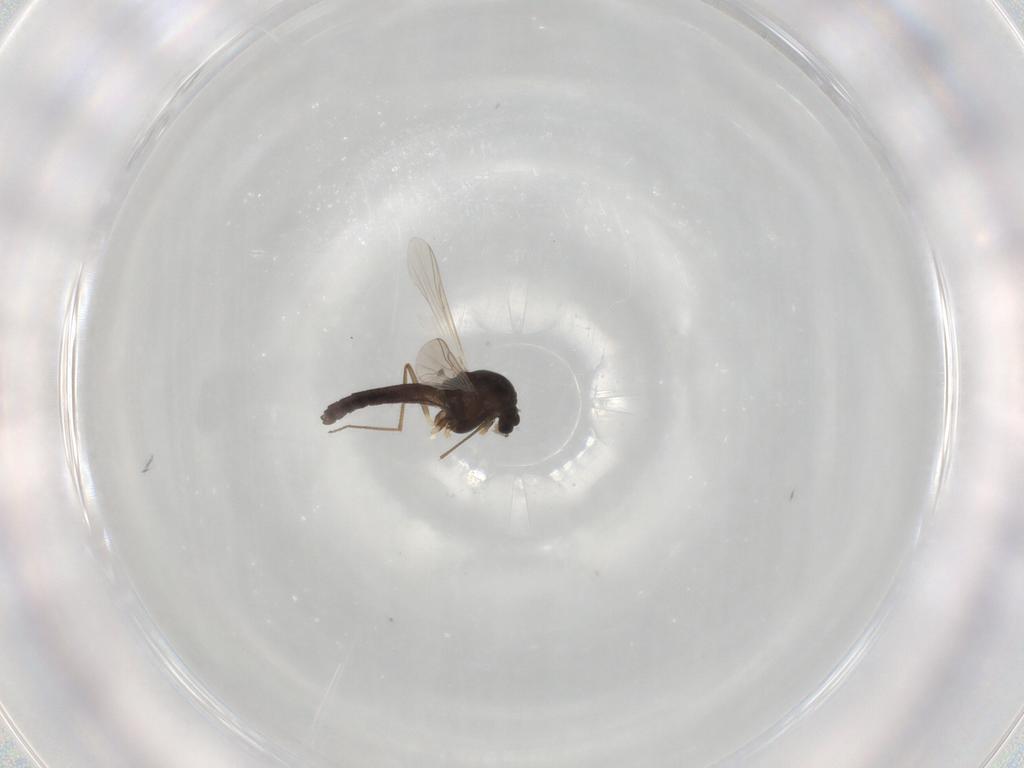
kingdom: Animalia
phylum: Arthropoda
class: Insecta
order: Diptera
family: Chironomidae
